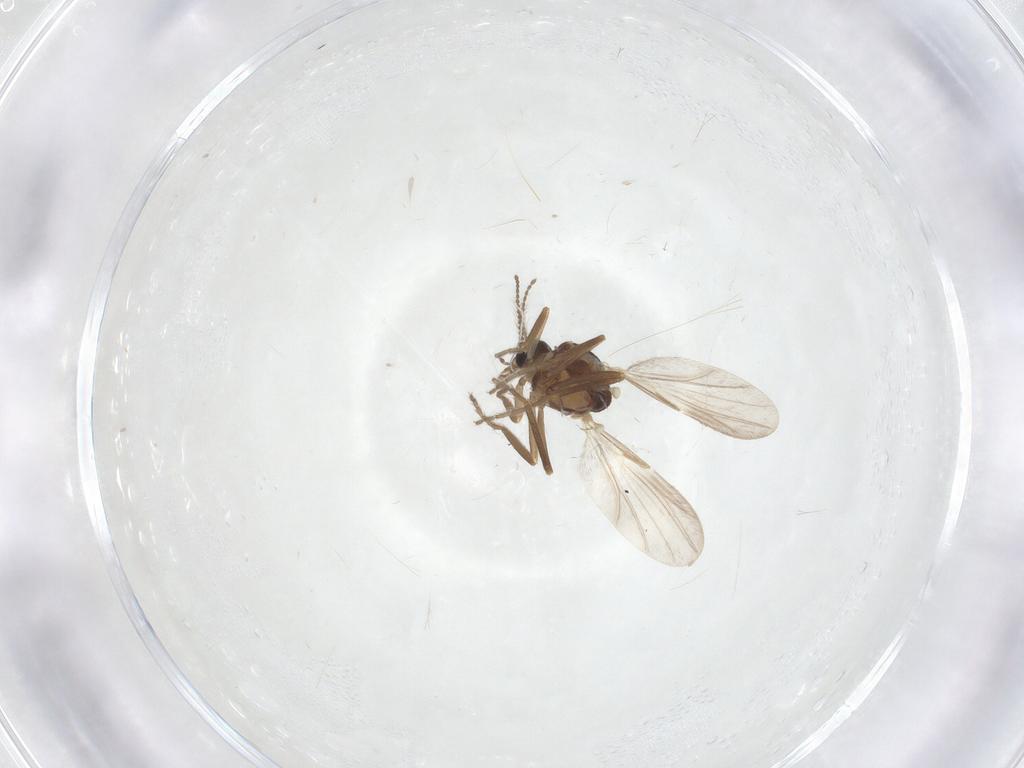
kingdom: Animalia
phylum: Arthropoda
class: Insecta
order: Diptera
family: Ceratopogonidae
